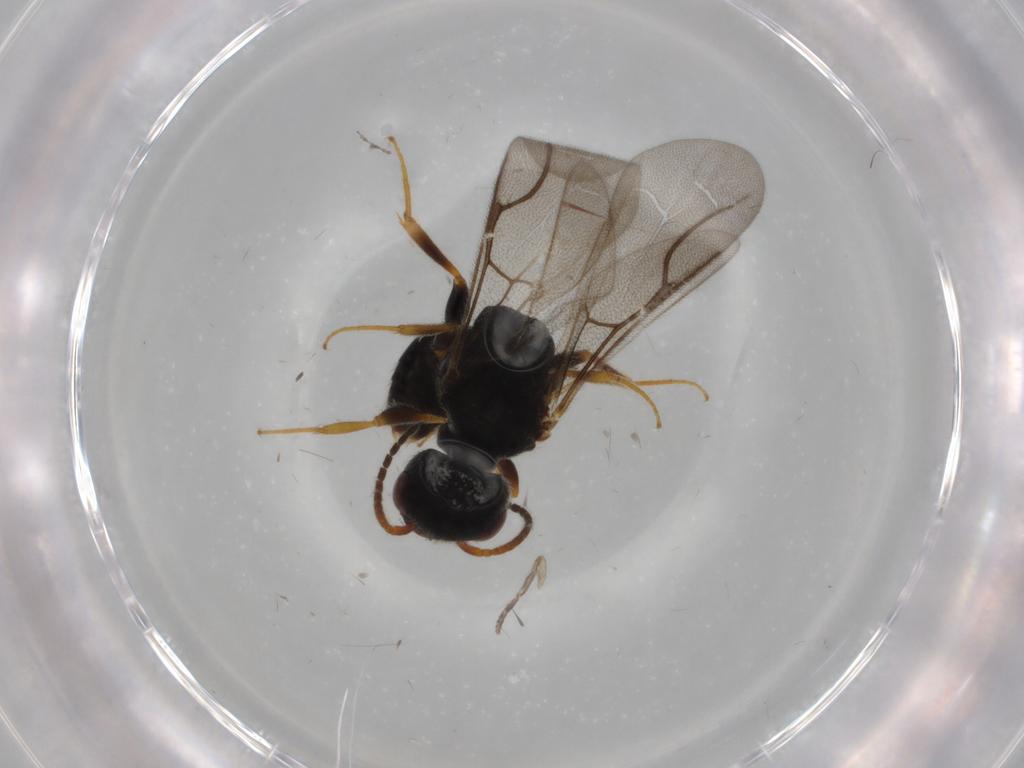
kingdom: Animalia
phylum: Arthropoda
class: Insecta
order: Hymenoptera
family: Bethylidae
